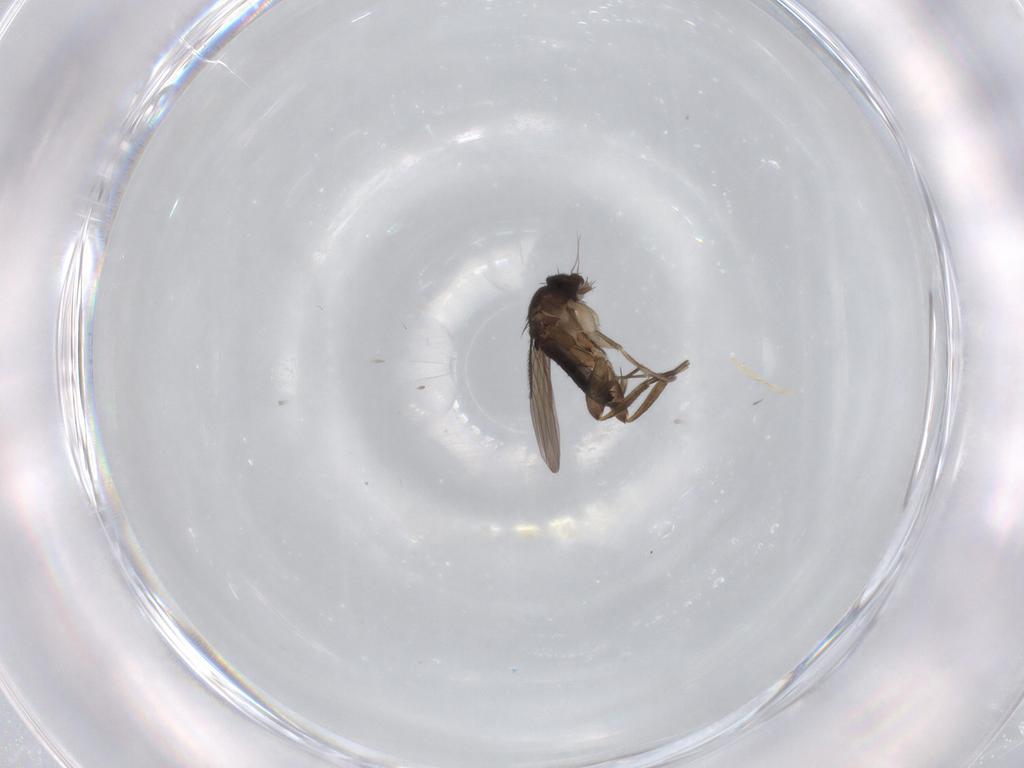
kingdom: Animalia
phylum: Arthropoda
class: Insecta
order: Diptera
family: Phoridae
